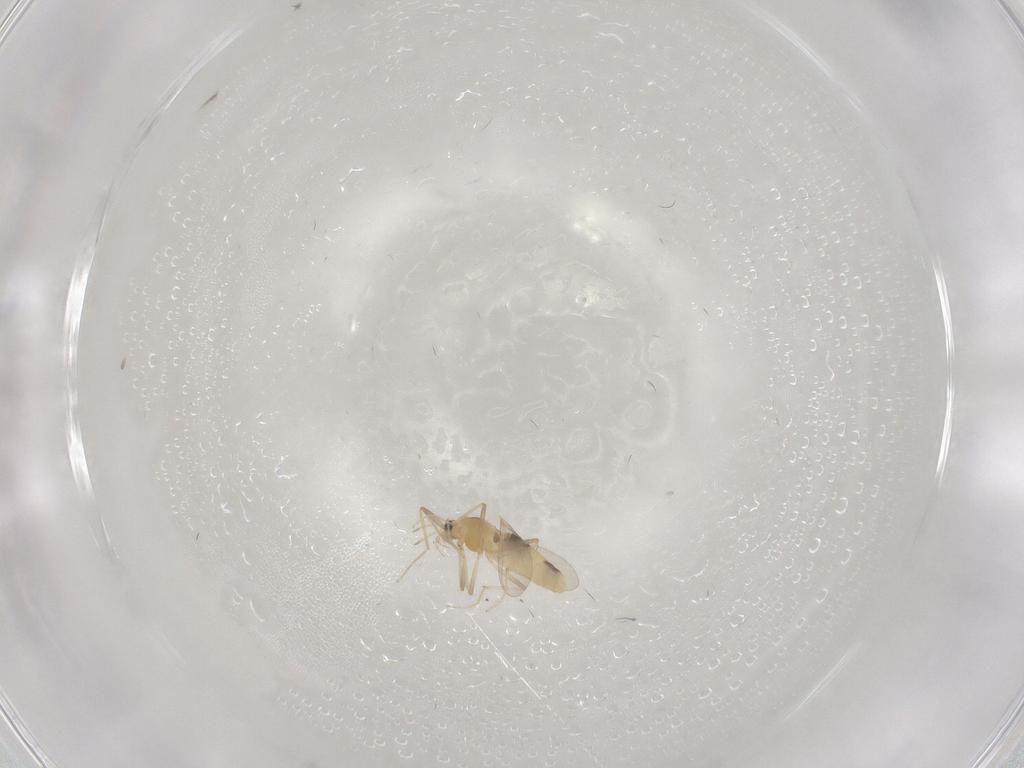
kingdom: Animalia
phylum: Arthropoda
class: Insecta
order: Diptera
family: Chironomidae
